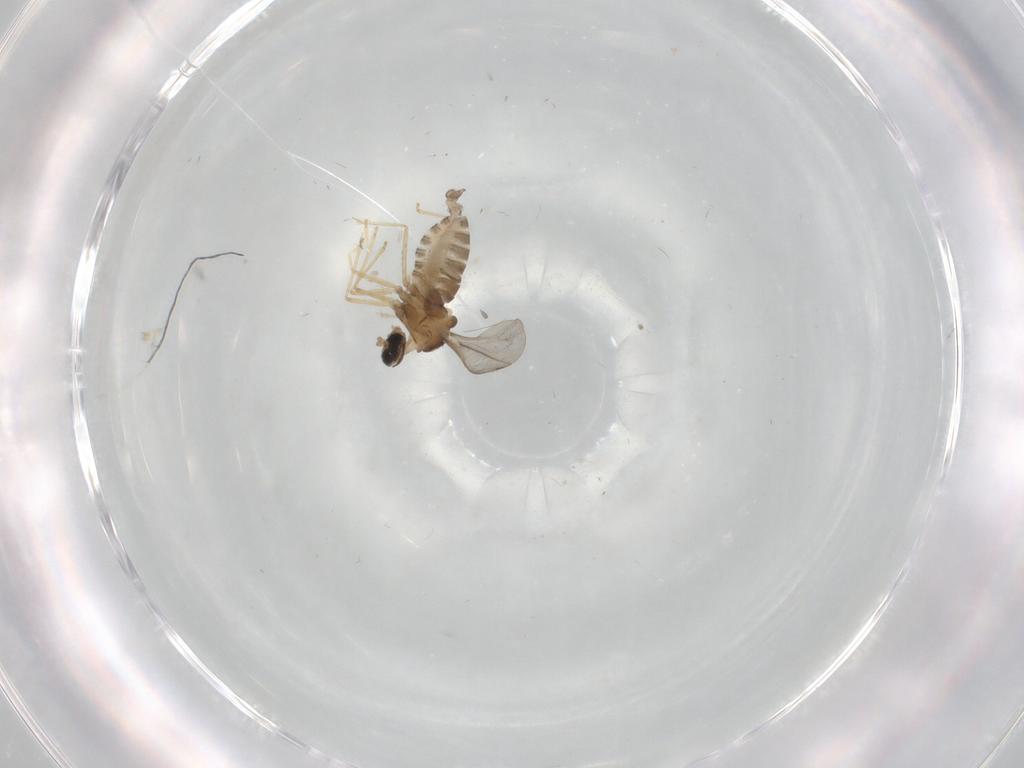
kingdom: Animalia
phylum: Arthropoda
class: Insecta
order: Diptera
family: Cecidomyiidae
